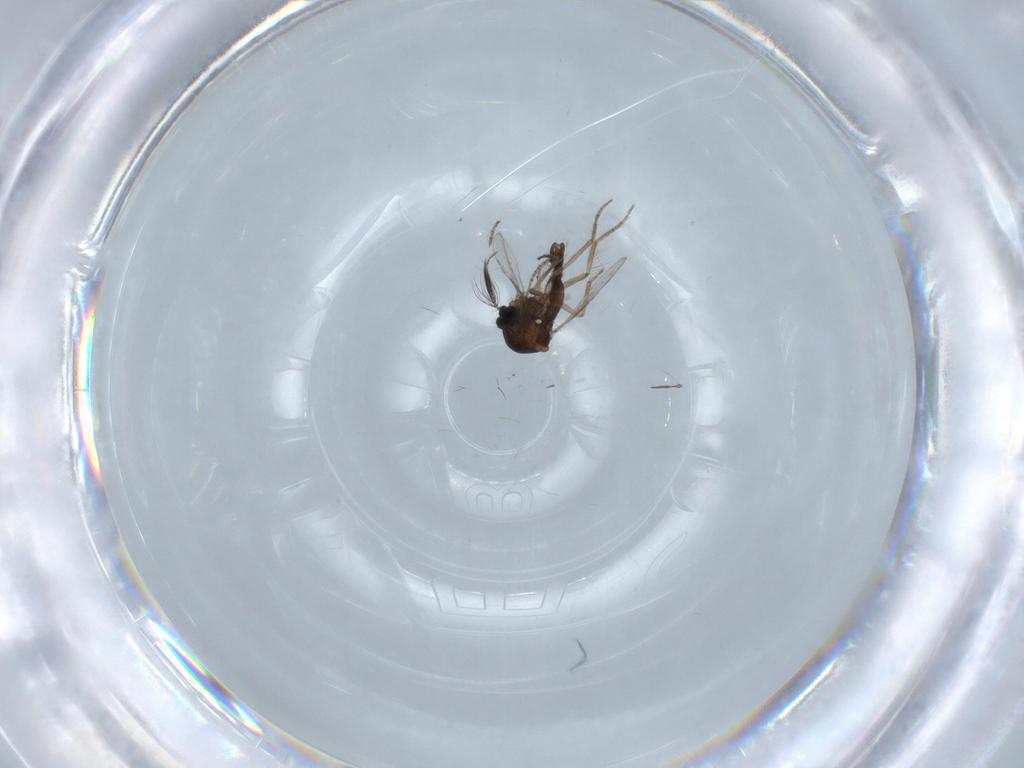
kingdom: Animalia
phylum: Arthropoda
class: Insecta
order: Diptera
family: Chironomidae
